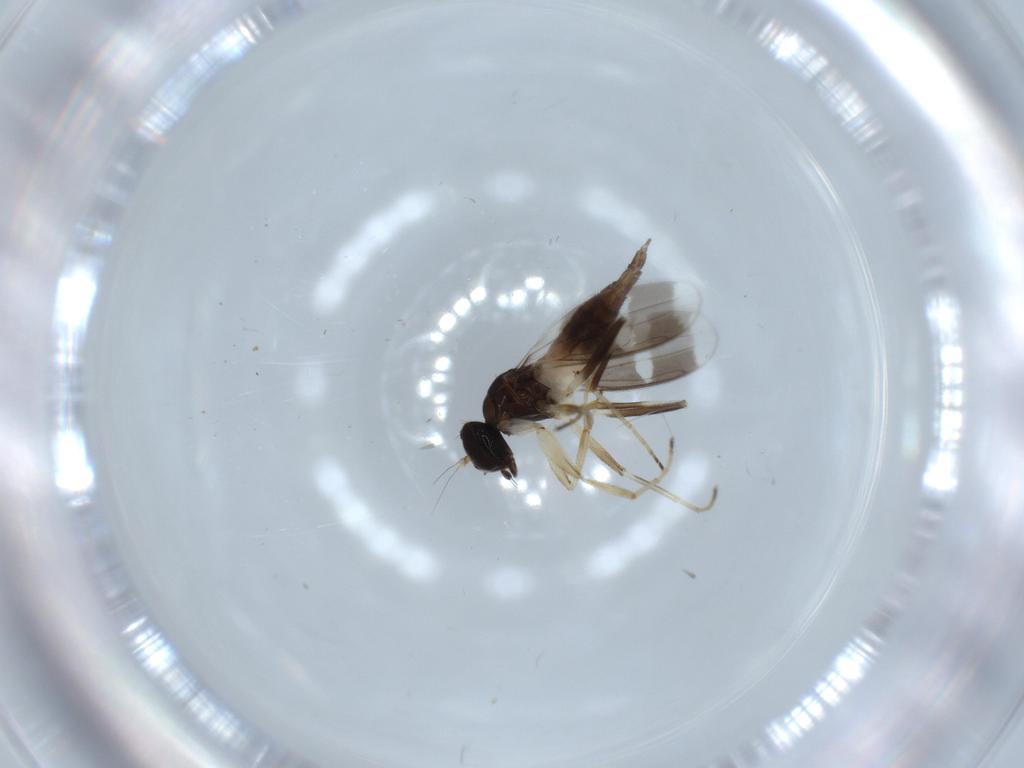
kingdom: Animalia
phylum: Arthropoda
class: Insecta
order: Diptera
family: Hybotidae
